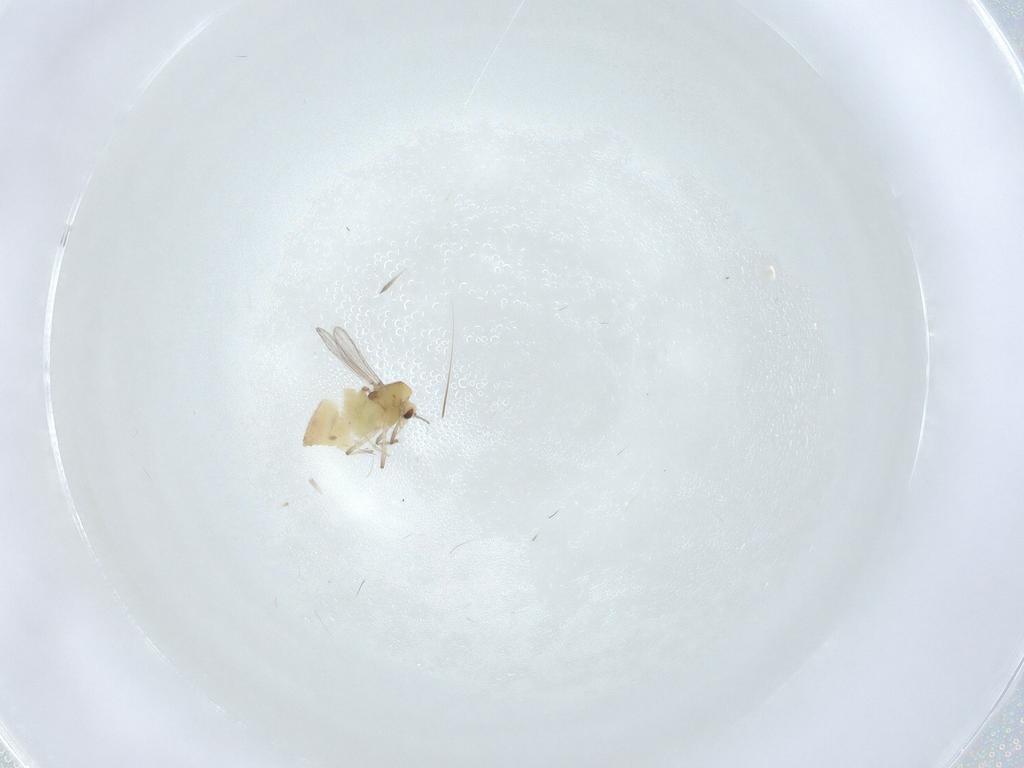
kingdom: Animalia
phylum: Arthropoda
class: Insecta
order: Diptera
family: Chironomidae
